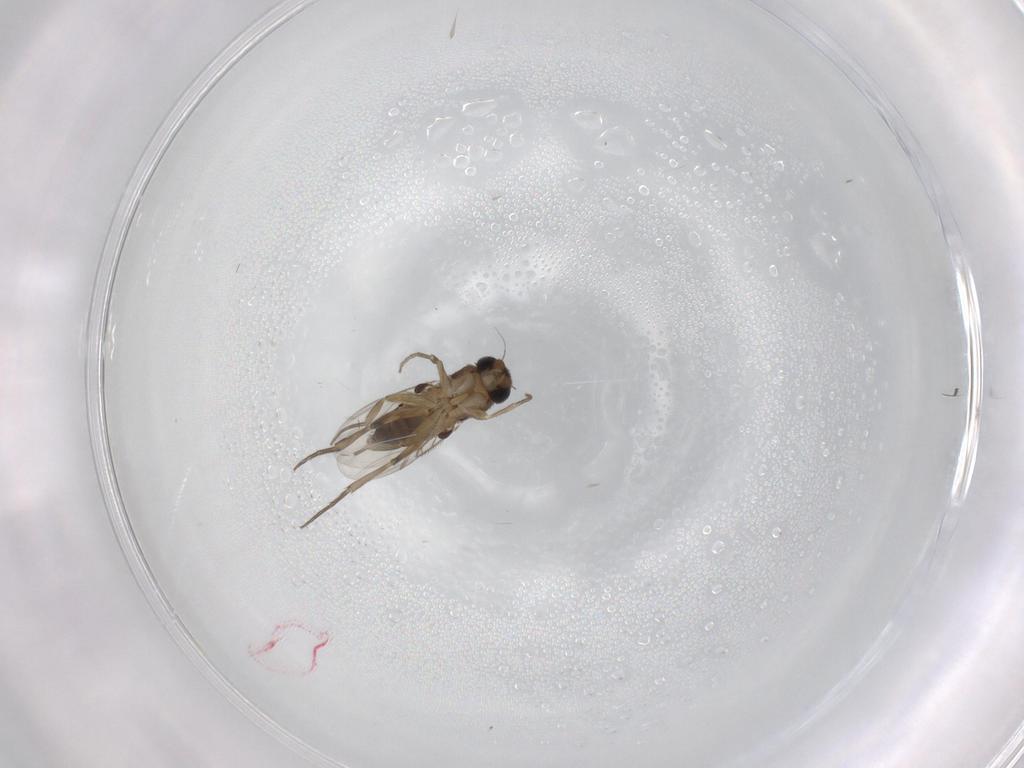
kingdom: Animalia
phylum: Arthropoda
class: Insecta
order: Diptera
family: Phoridae
